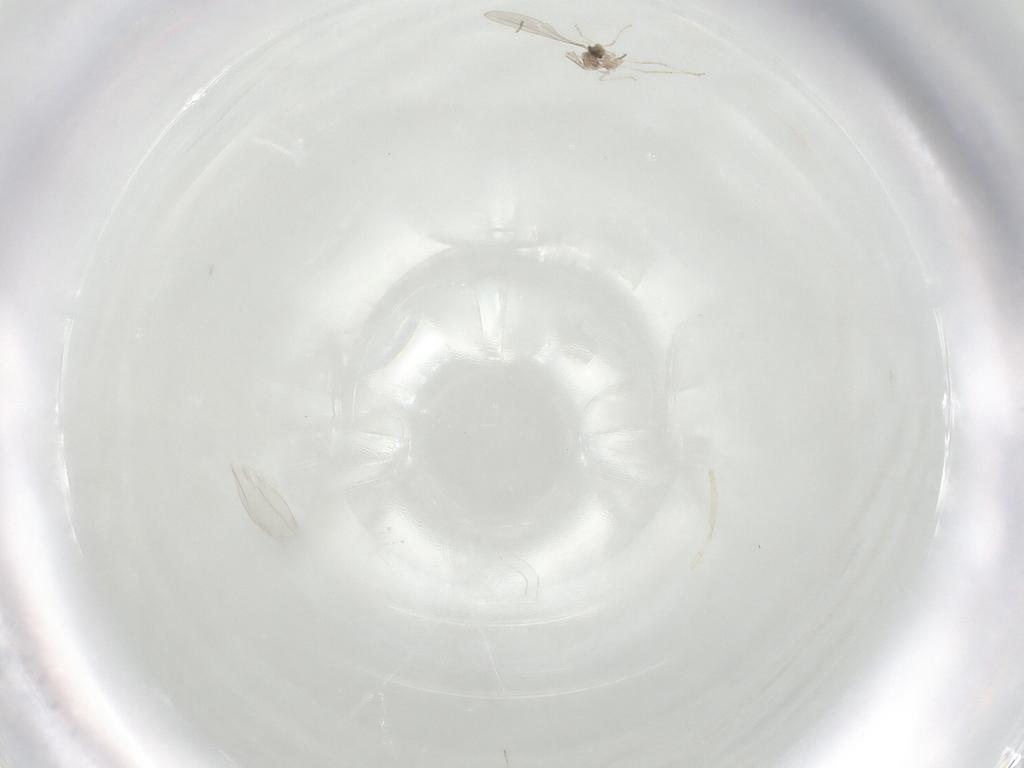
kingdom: Animalia
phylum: Arthropoda
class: Insecta
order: Diptera
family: Cecidomyiidae
